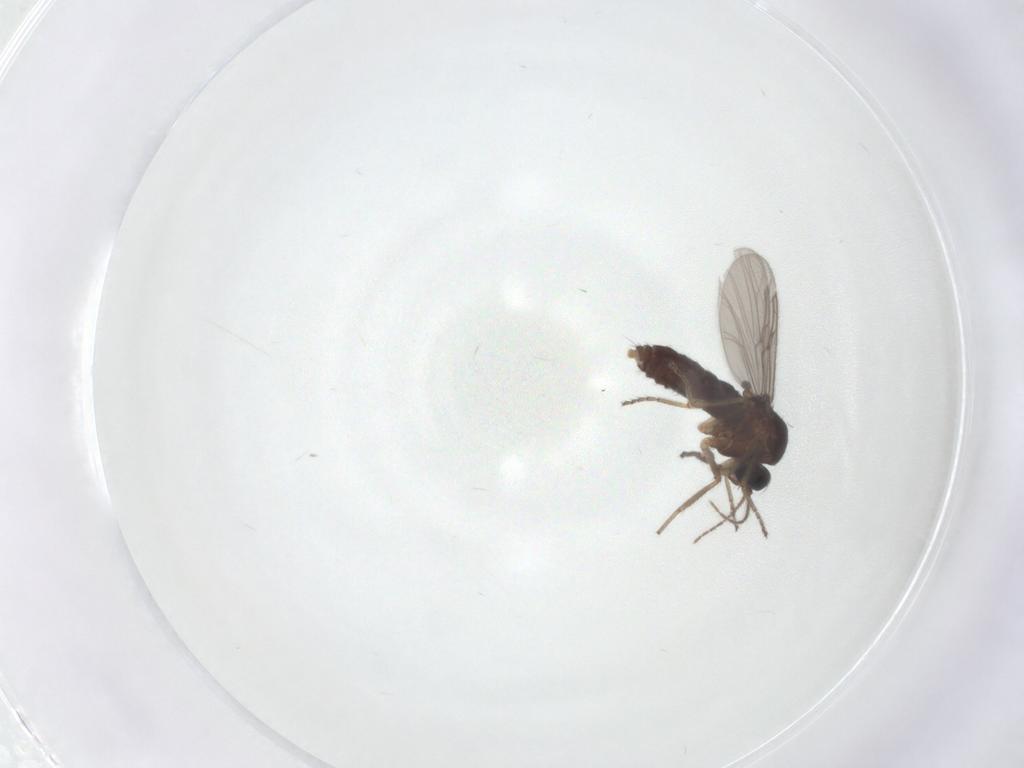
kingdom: Animalia
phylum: Arthropoda
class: Insecta
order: Diptera
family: Ceratopogonidae
